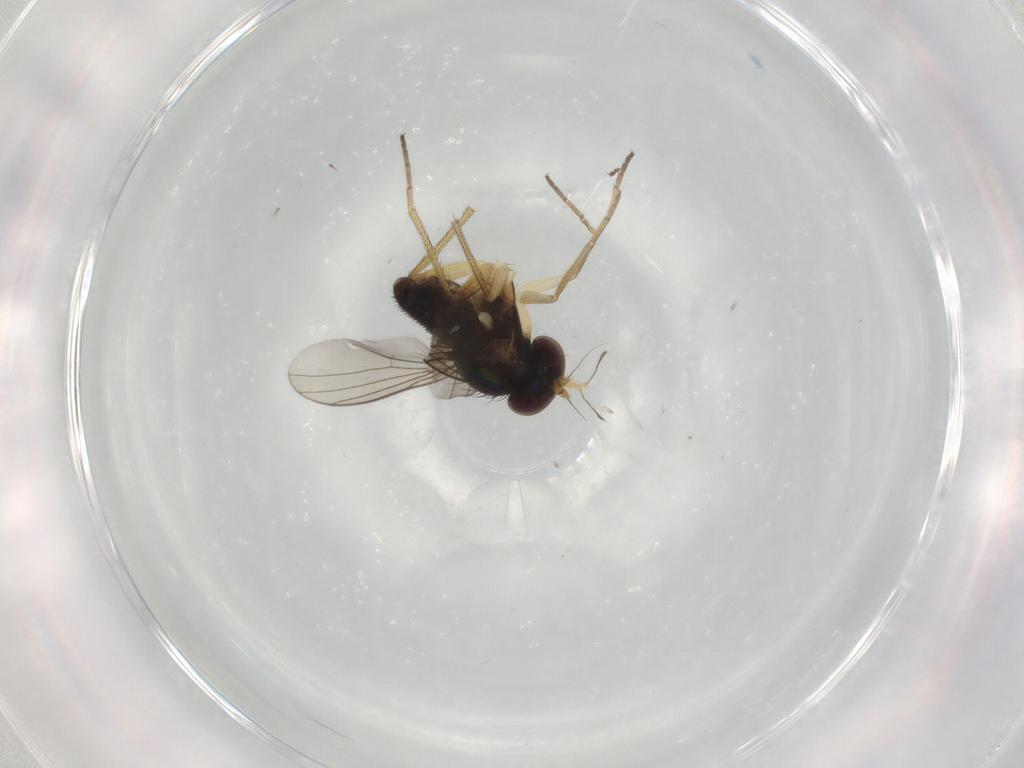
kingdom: Animalia
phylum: Arthropoda
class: Insecta
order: Diptera
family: Dolichopodidae
